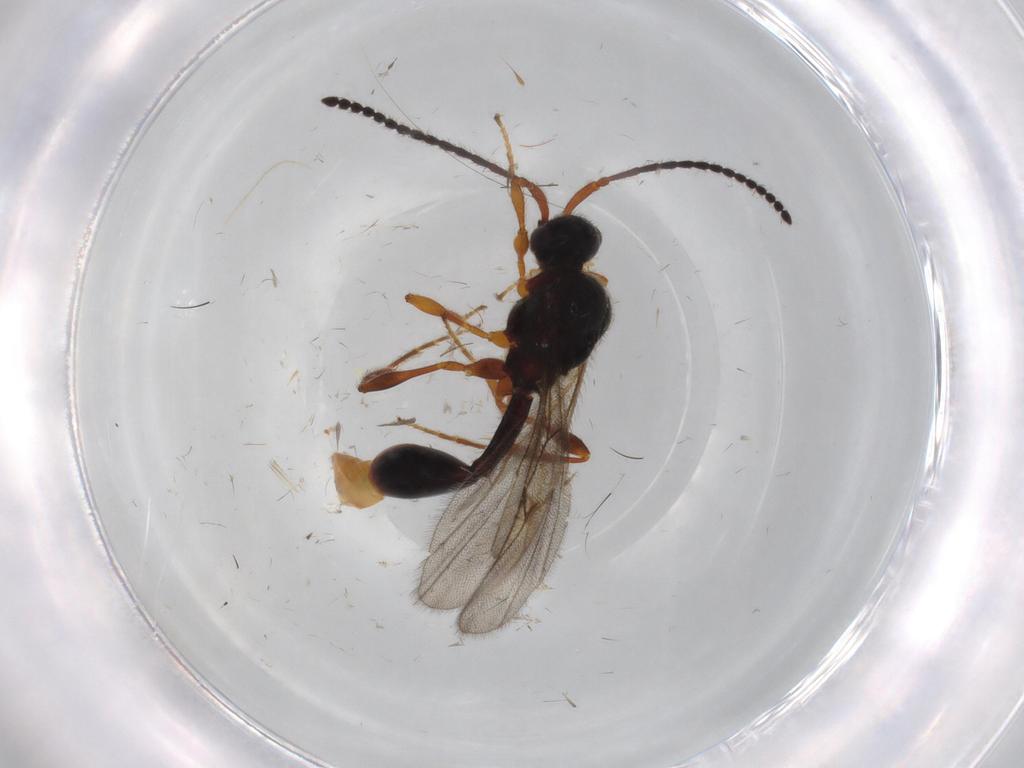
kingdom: Animalia
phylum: Arthropoda
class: Insecta
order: Hymenoptera
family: Diapriidae
